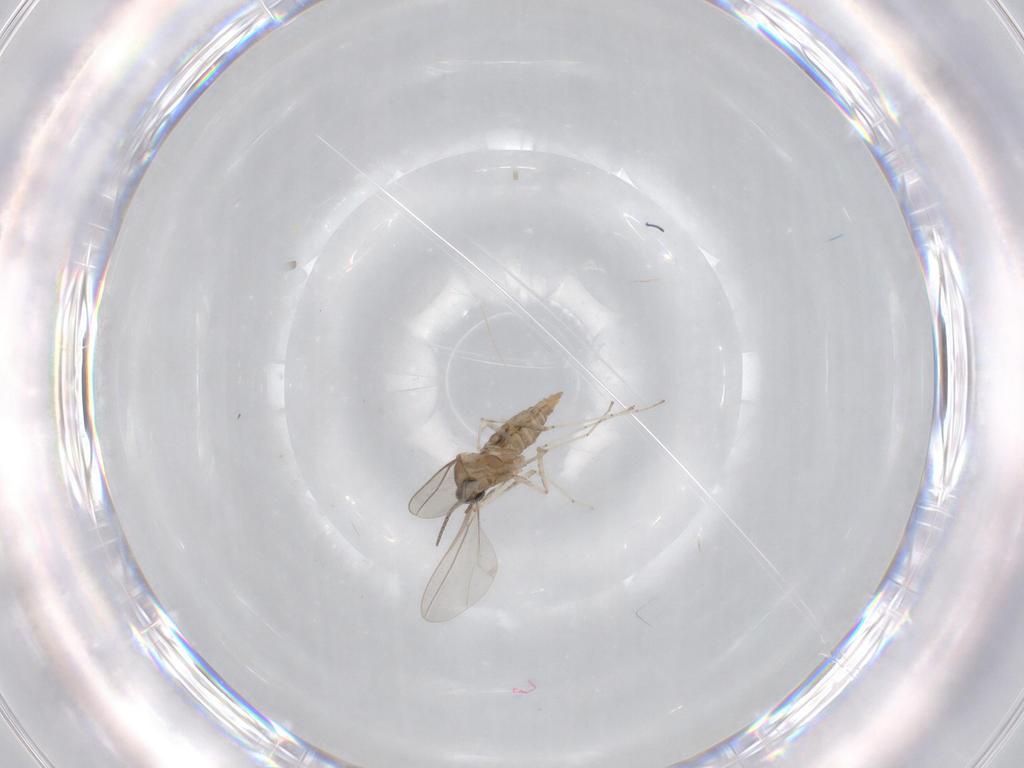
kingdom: Animalia
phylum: Arthropoda
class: Insecta
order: Diptera
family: Cecidomyiidae
